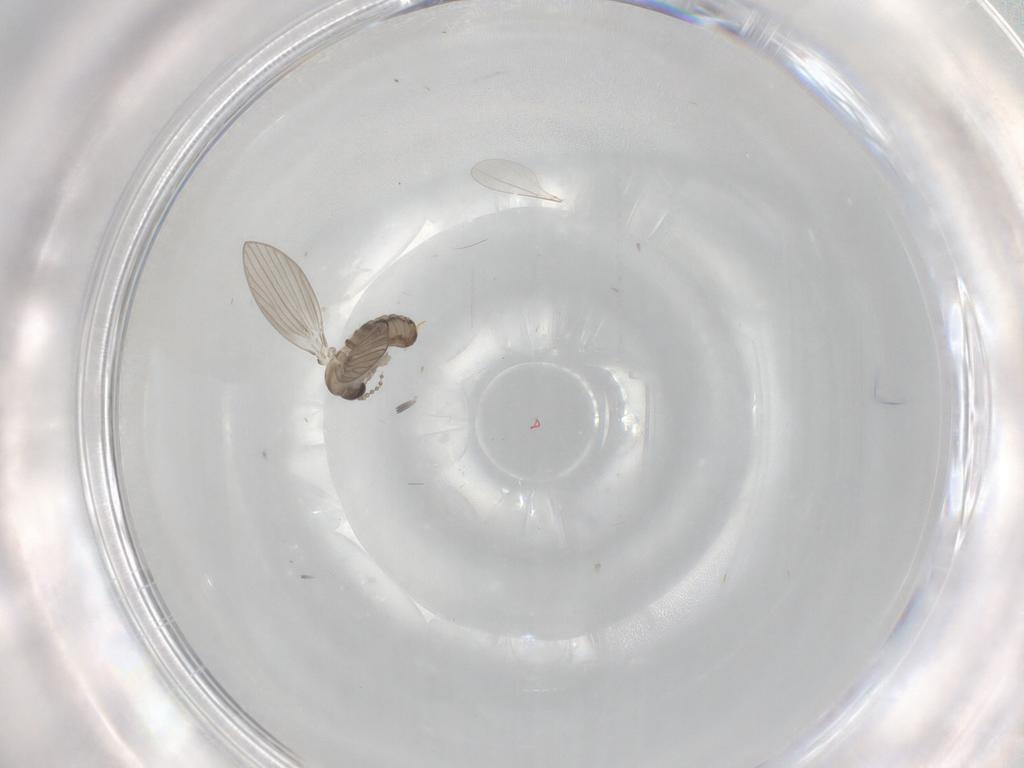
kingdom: Animalia
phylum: Arthropoda
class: Insecta
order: Diptera
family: Psychodidae
